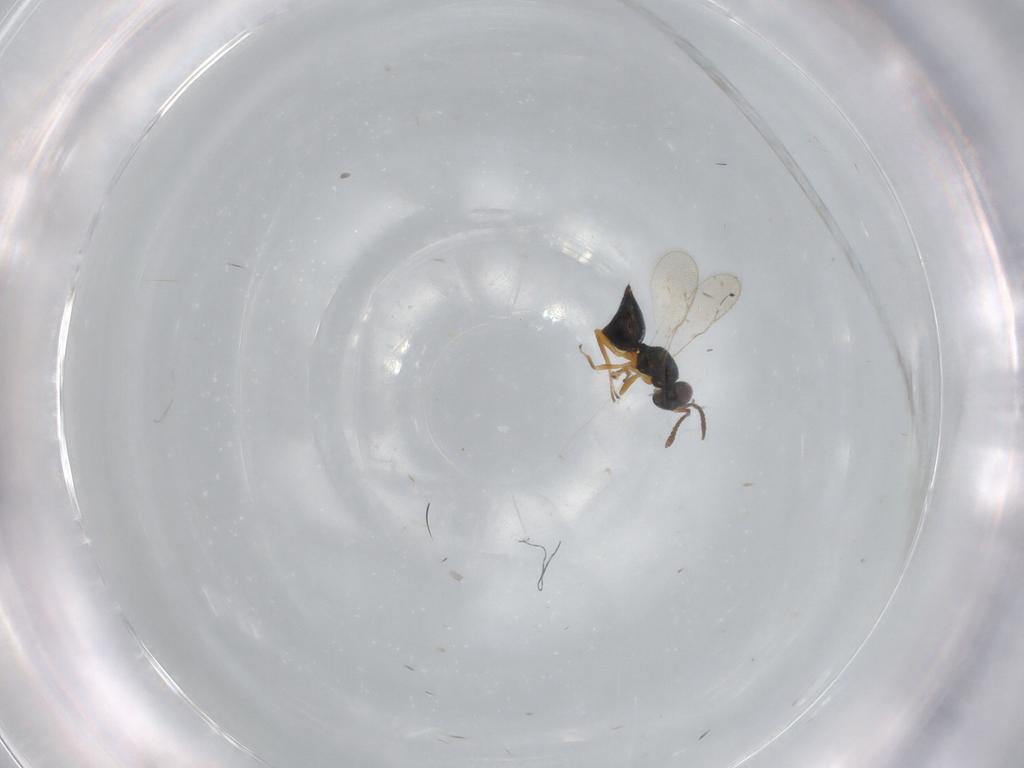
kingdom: Animalia
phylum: Arthropoda
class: Insecta
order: Hymenoptera
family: Pteromalidae
